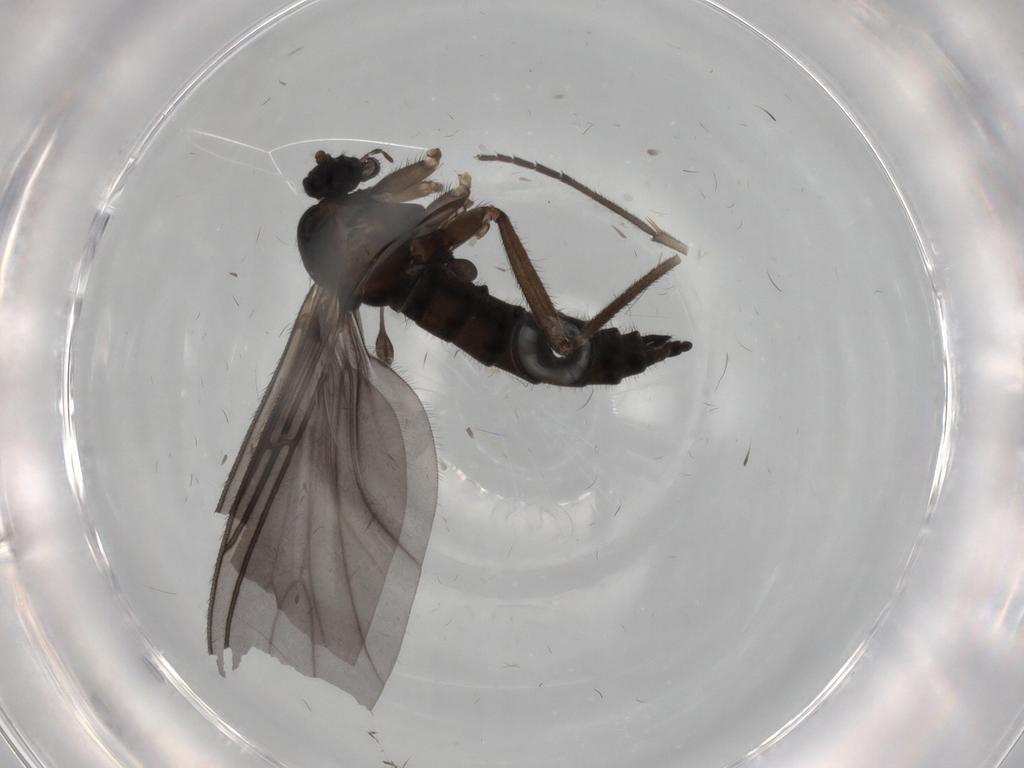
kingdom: Animalia
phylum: Arthropoda
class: Insecta
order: Diptera
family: Sciaridae
